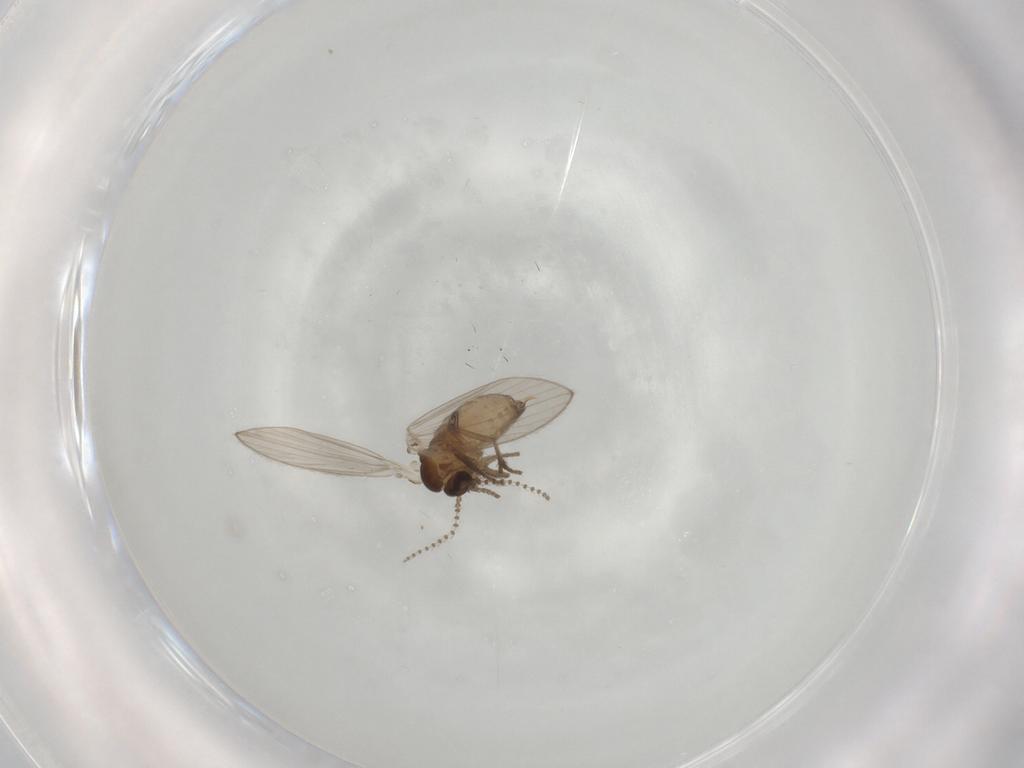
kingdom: Animalia
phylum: Arthropoda
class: Insecta
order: Diptera
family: Psychodidae
